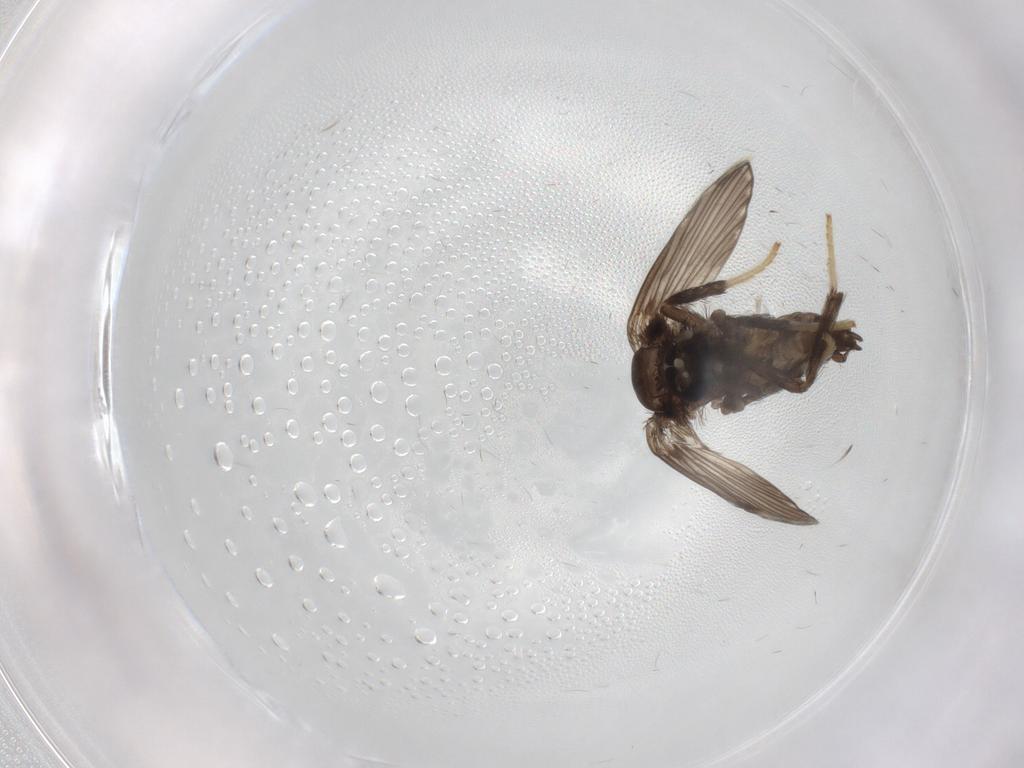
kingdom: Animalia
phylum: Arthropoda
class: Insecta
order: Diptera
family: Psychodidae
